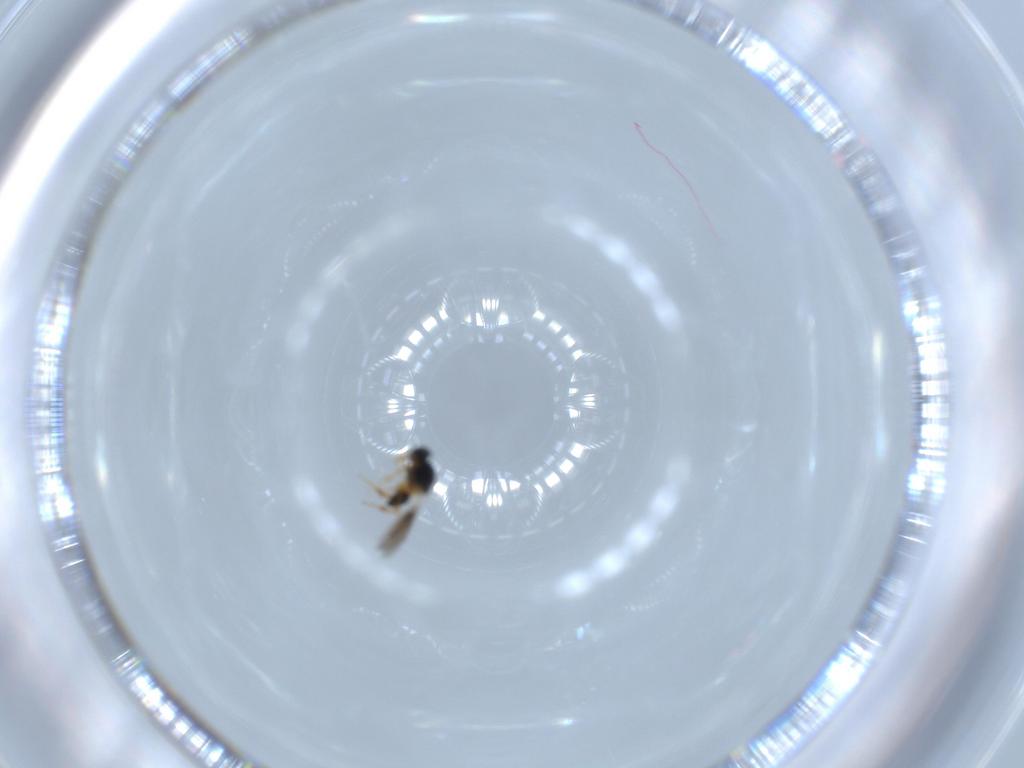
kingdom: Animalia
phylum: Arthropoda
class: Insecta
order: Hymenoptera
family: Platygastridae
